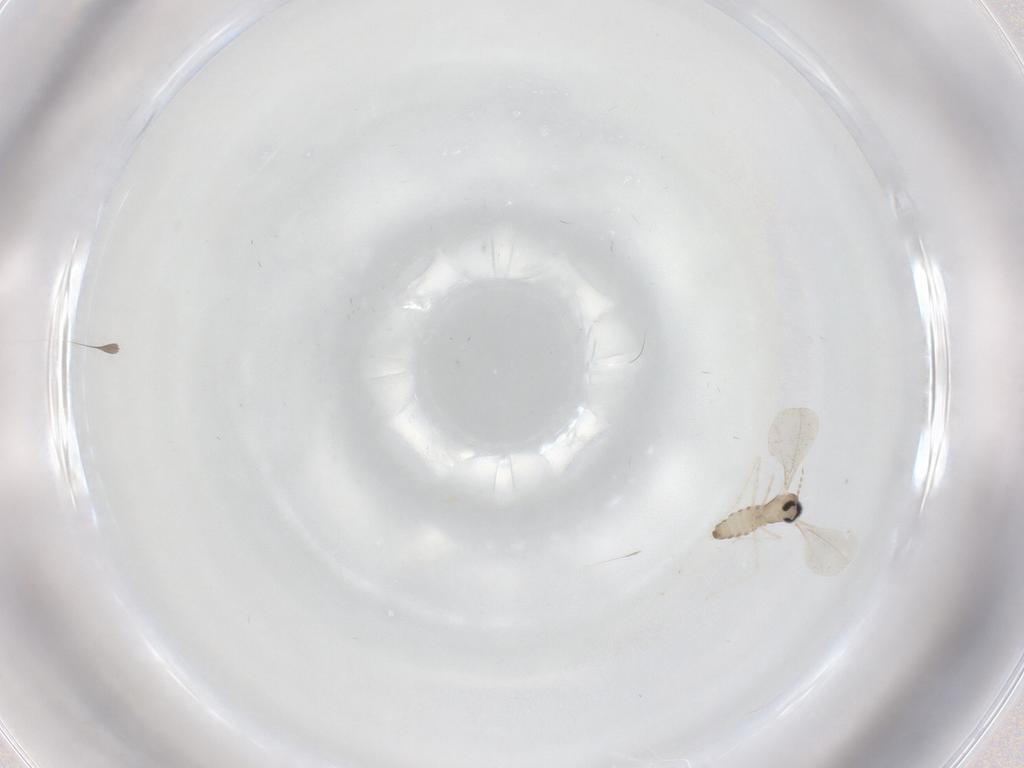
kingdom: Animalia
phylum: Arthropoda
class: Insecta
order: Diptera
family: Cecidomyiidae
